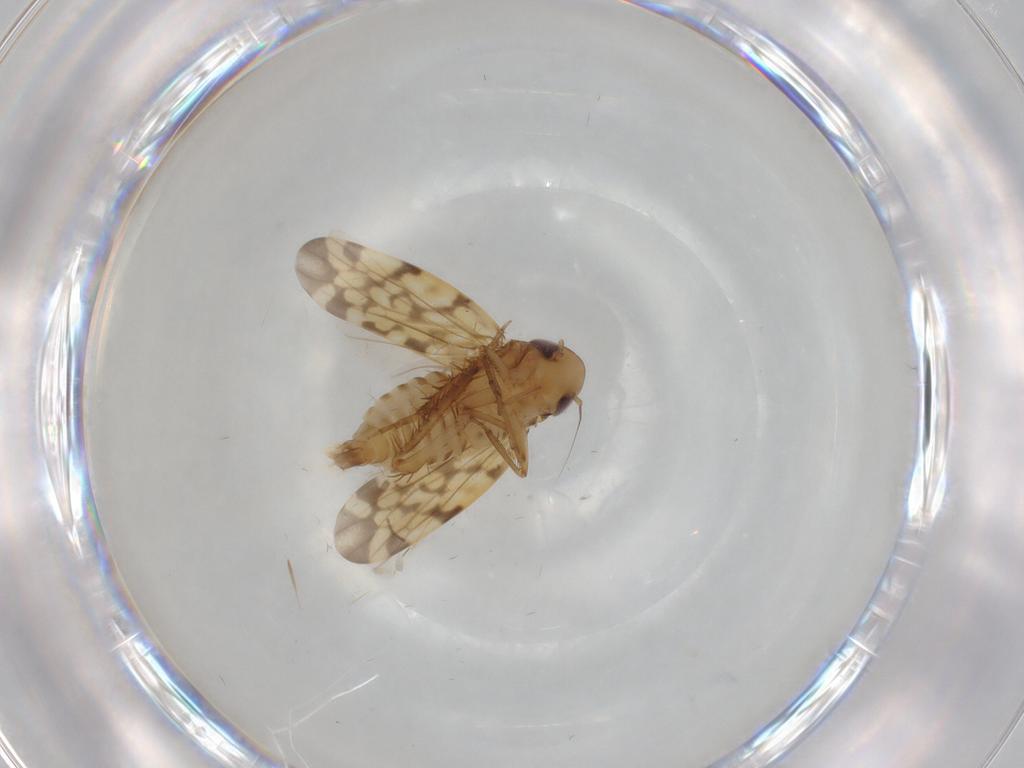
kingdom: Animalia
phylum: Arthropoda
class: Insecta
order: Hemiptera
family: Cicadellidae
